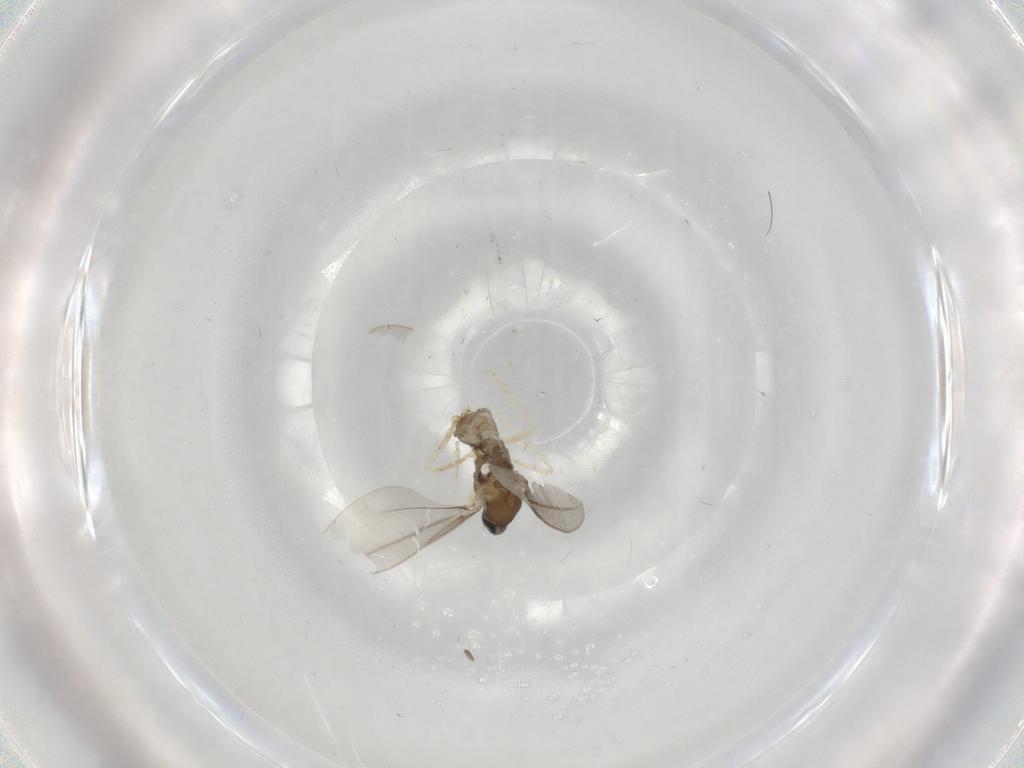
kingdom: Animalia
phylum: Arthropoda
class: Insecta
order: Diptera
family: Cecidomyiidae
